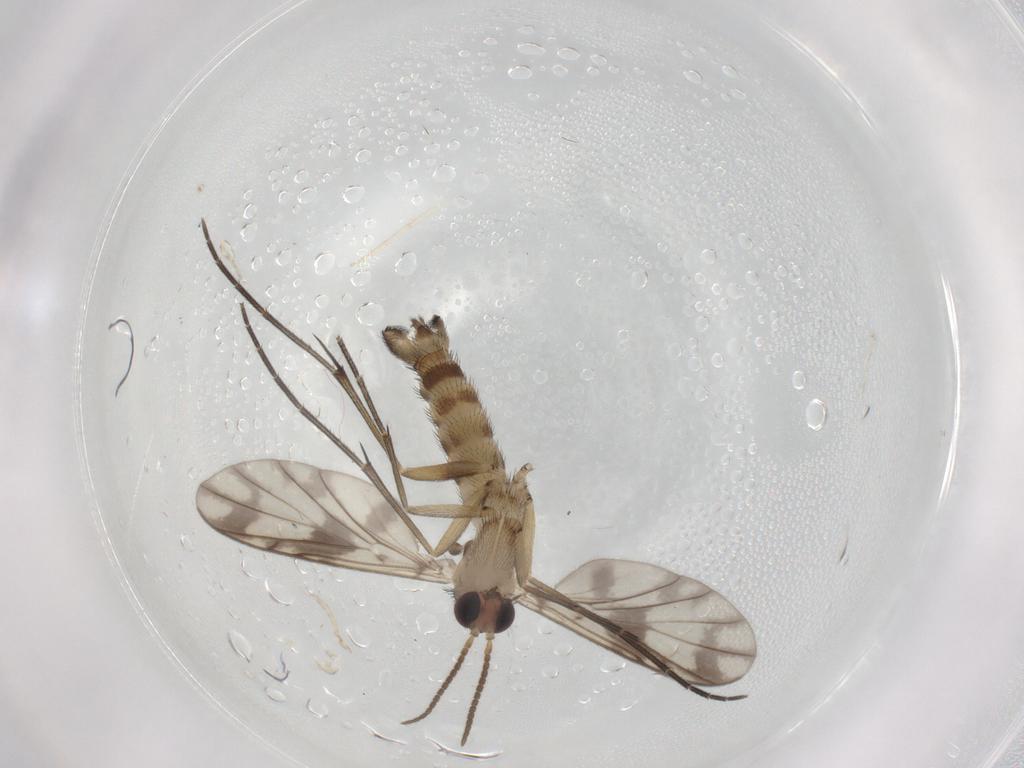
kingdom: Animalia
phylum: Arthropoda
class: Insecta
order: Diptera
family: Keroplatidae
